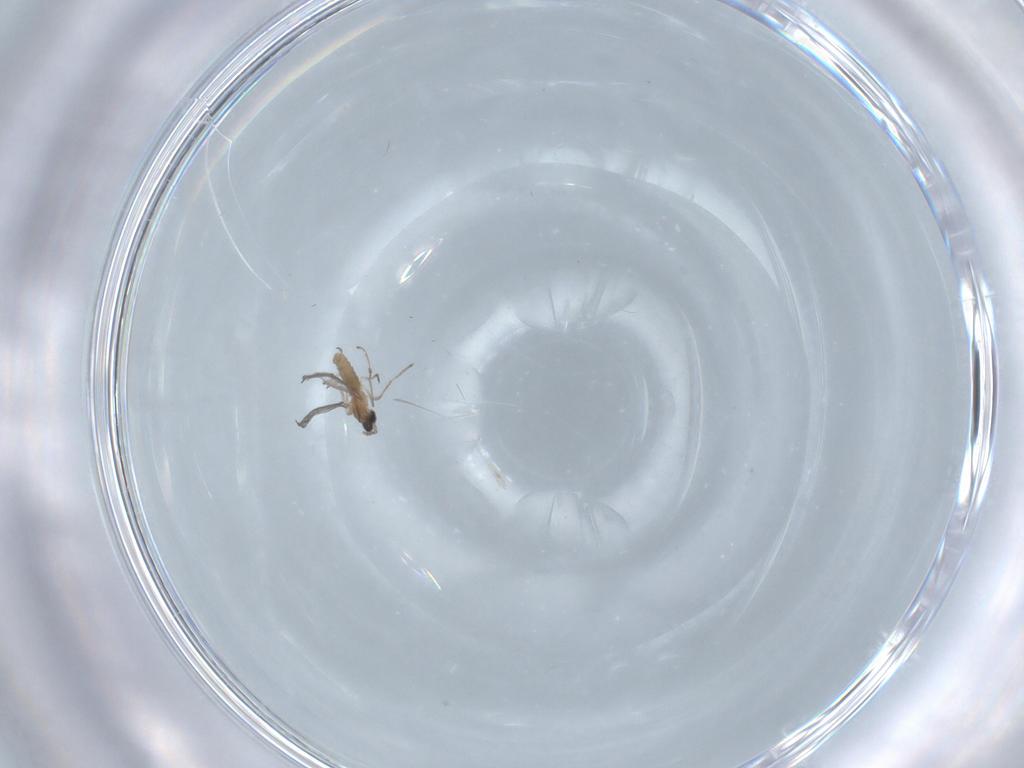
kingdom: Animalia
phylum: Arthropoda
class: Insecta
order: Diptera
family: Cecidomyiidae
